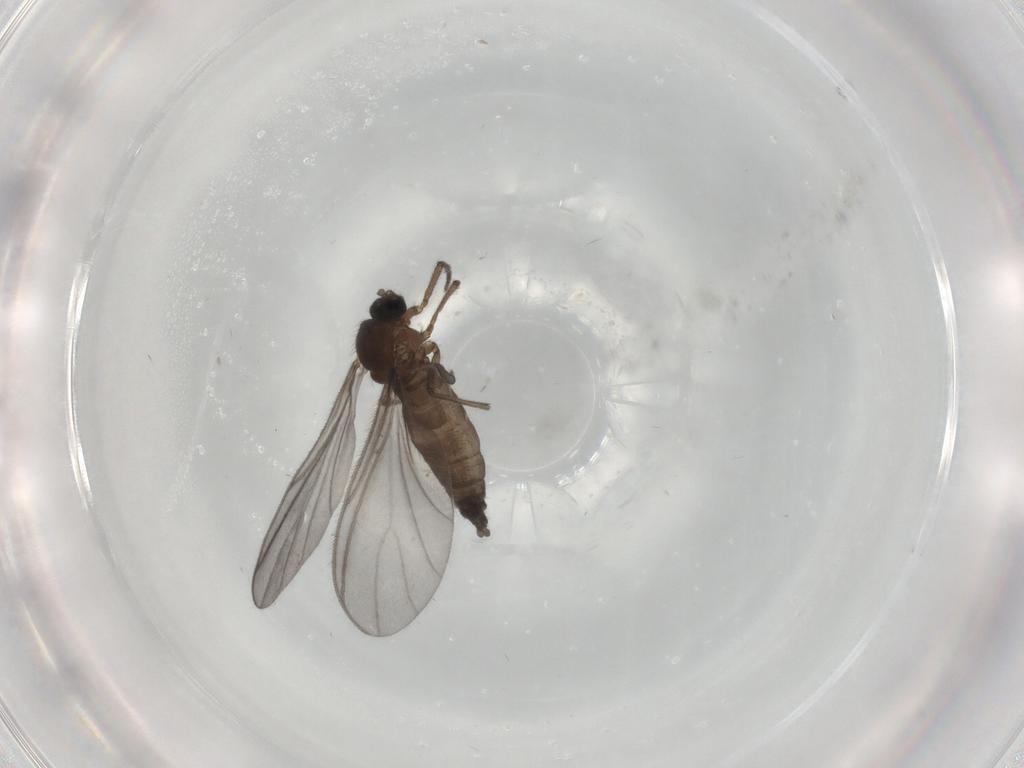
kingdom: Animalia
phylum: Arthropoda
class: Insecta
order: Diptera
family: Sciaridae
